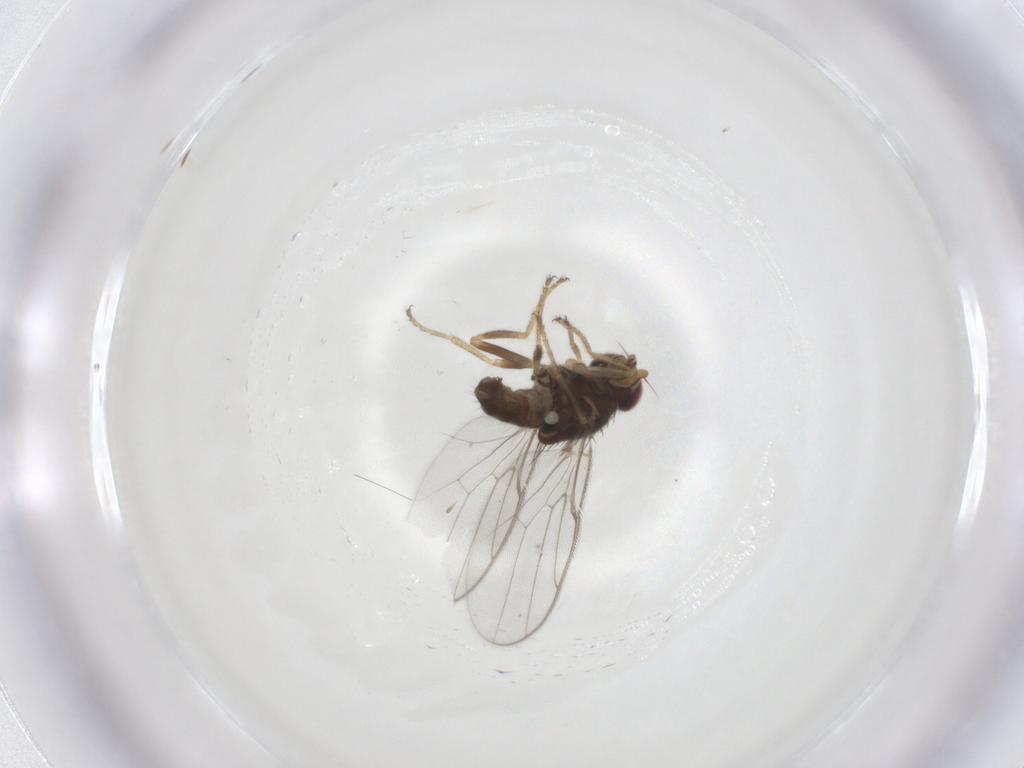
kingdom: Animalia
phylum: Arthropoda
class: Insecta
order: Diptera
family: Chloropidae
